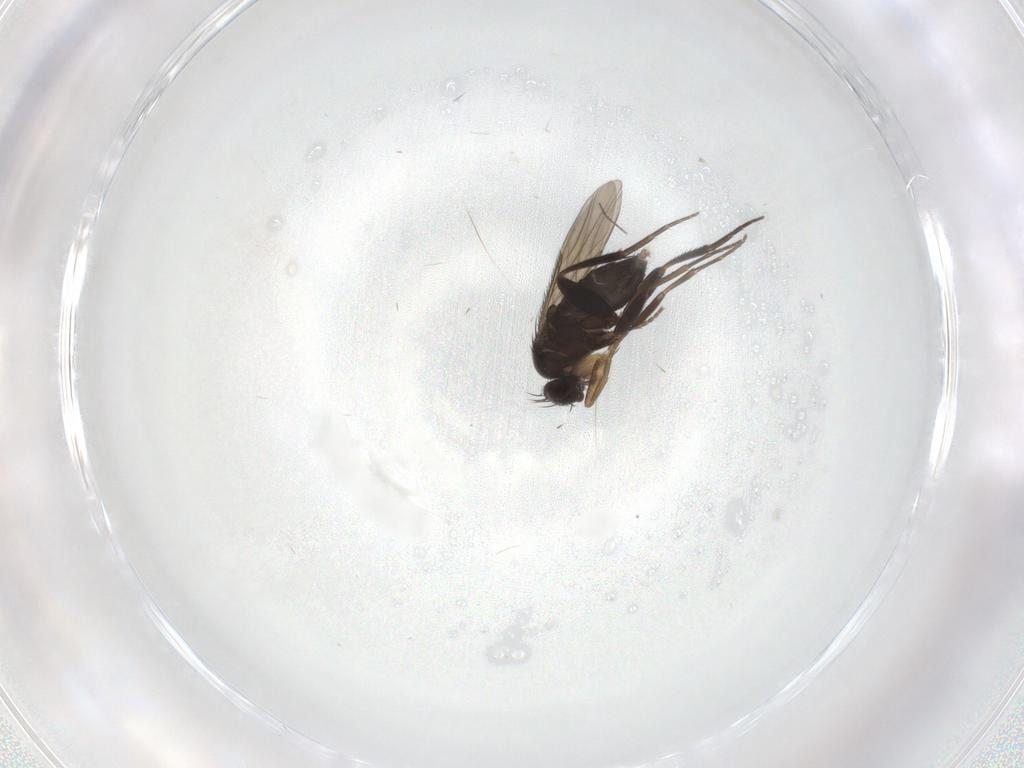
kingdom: Animalia
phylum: Arthropoda
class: Insecta
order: Diptera
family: Phoridae
